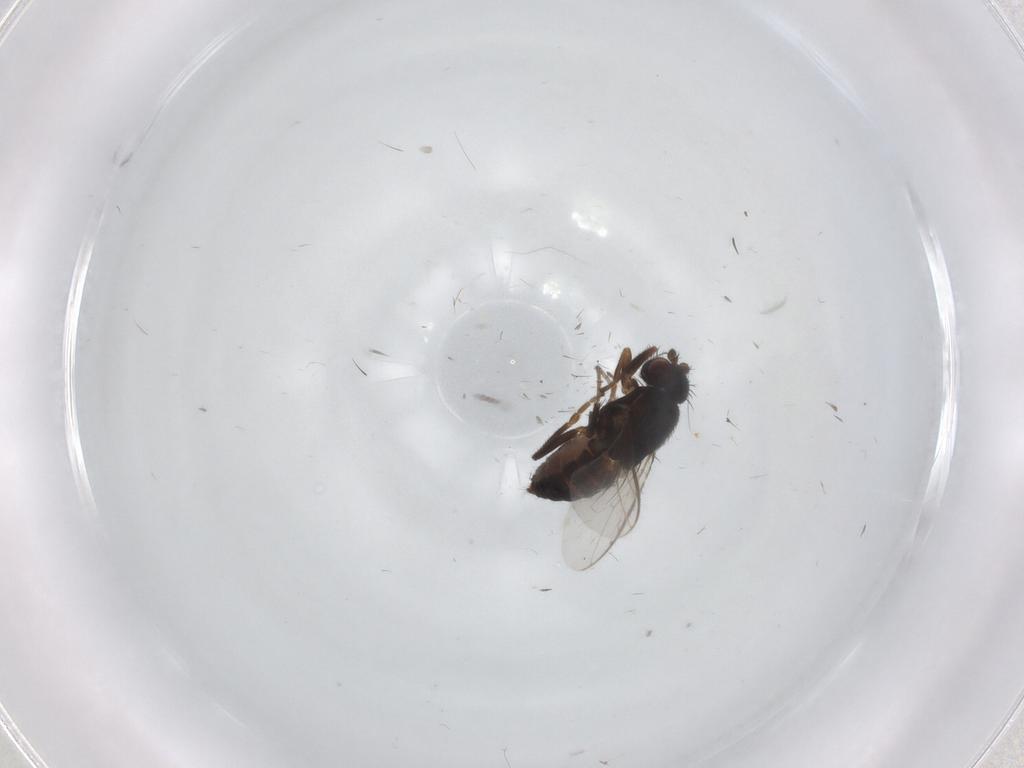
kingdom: Animalia
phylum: Arthropoda
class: Insecta
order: Diptera
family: Sphaeroceridae
